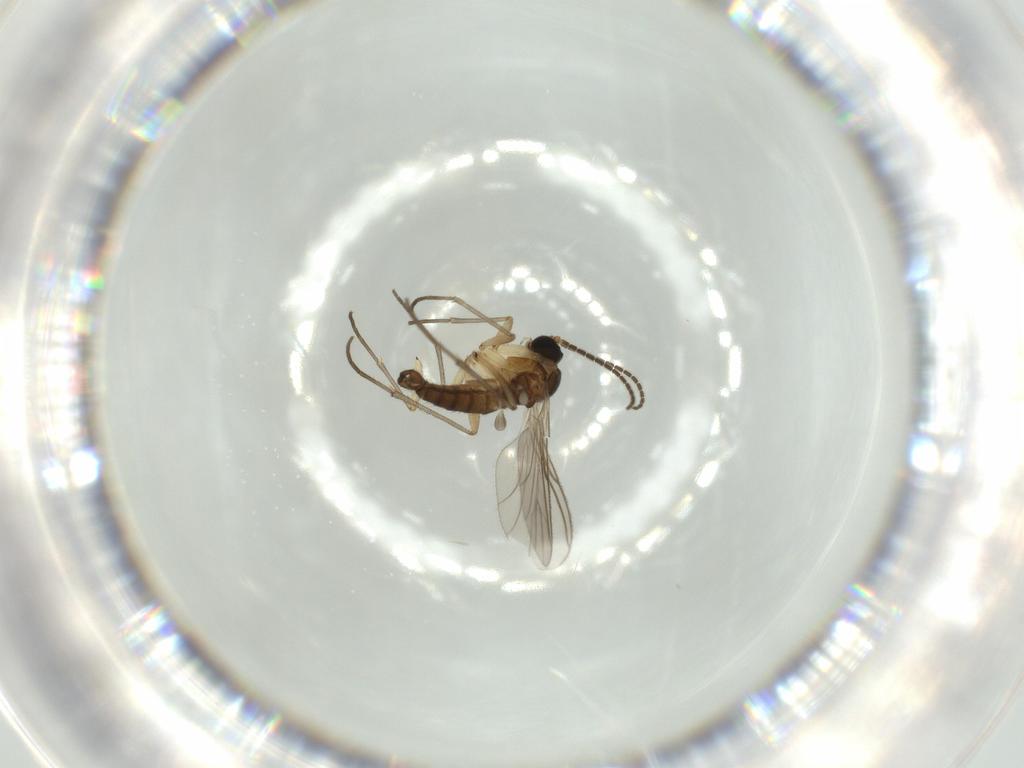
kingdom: Animalia
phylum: Arthropoda
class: Insecta
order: Diptera
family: Sciaridae
